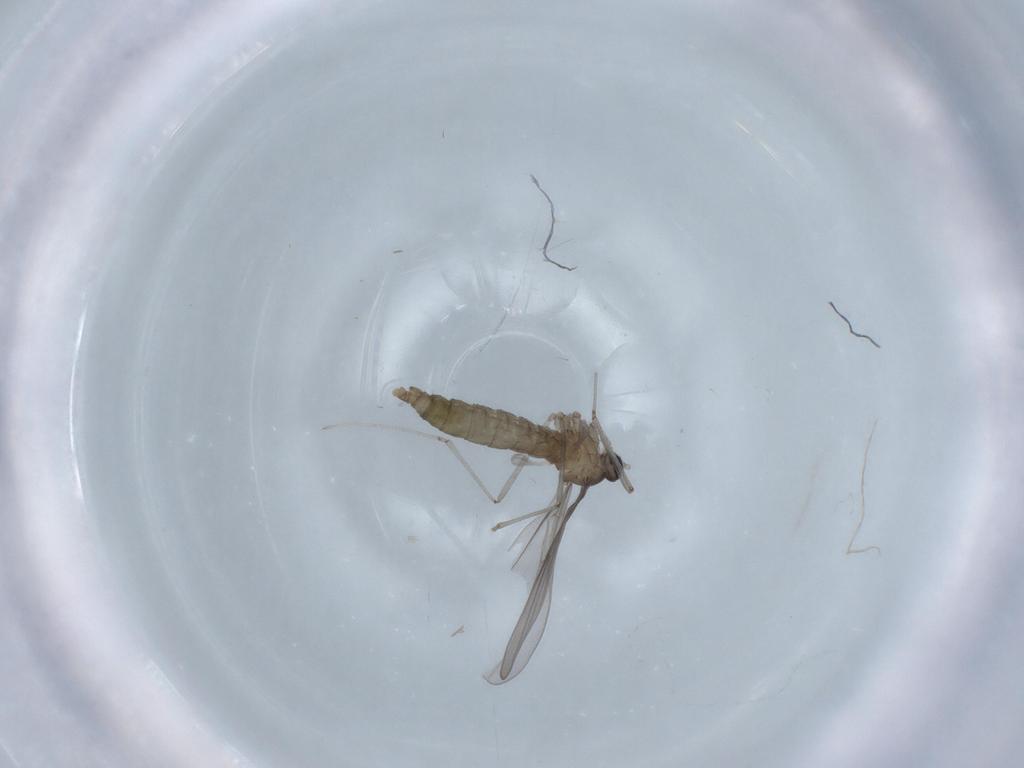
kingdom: Animalia
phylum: Arthropoda
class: Insecta
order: Diptera
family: Cecidomyiidae
